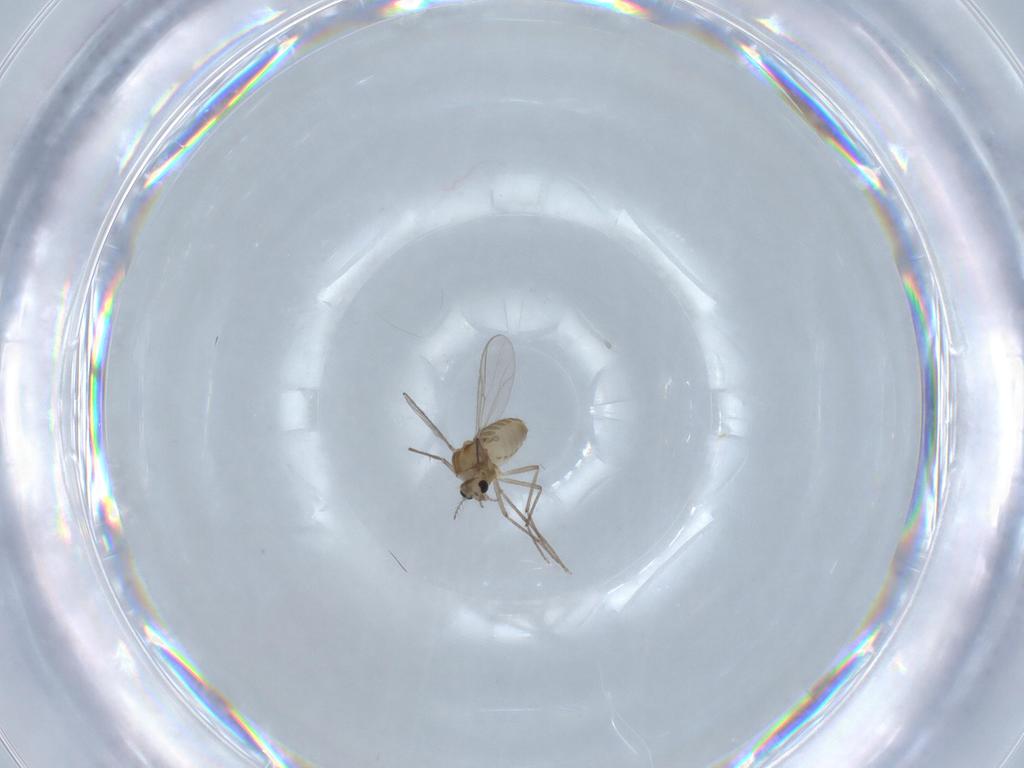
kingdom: Animalia
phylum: Arthropoda
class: Insecta
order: Diptera
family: Chironomidae
